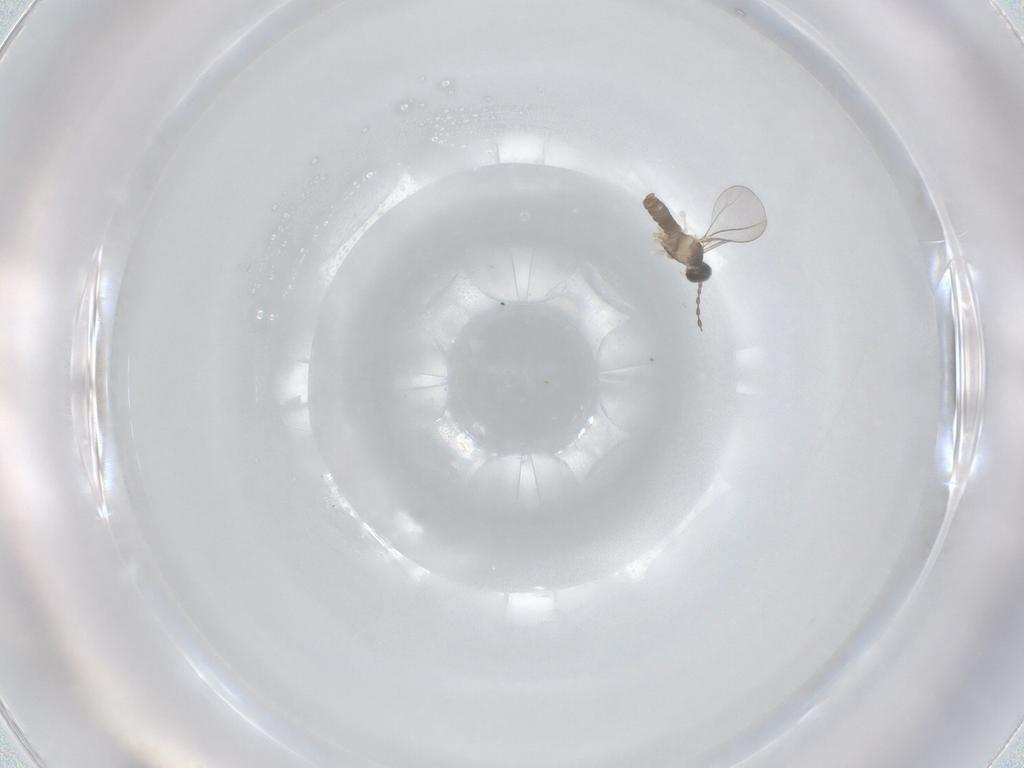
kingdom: Animalia
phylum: Arthropoda
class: Insecta
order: Diptera
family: Cecidomyiidae
